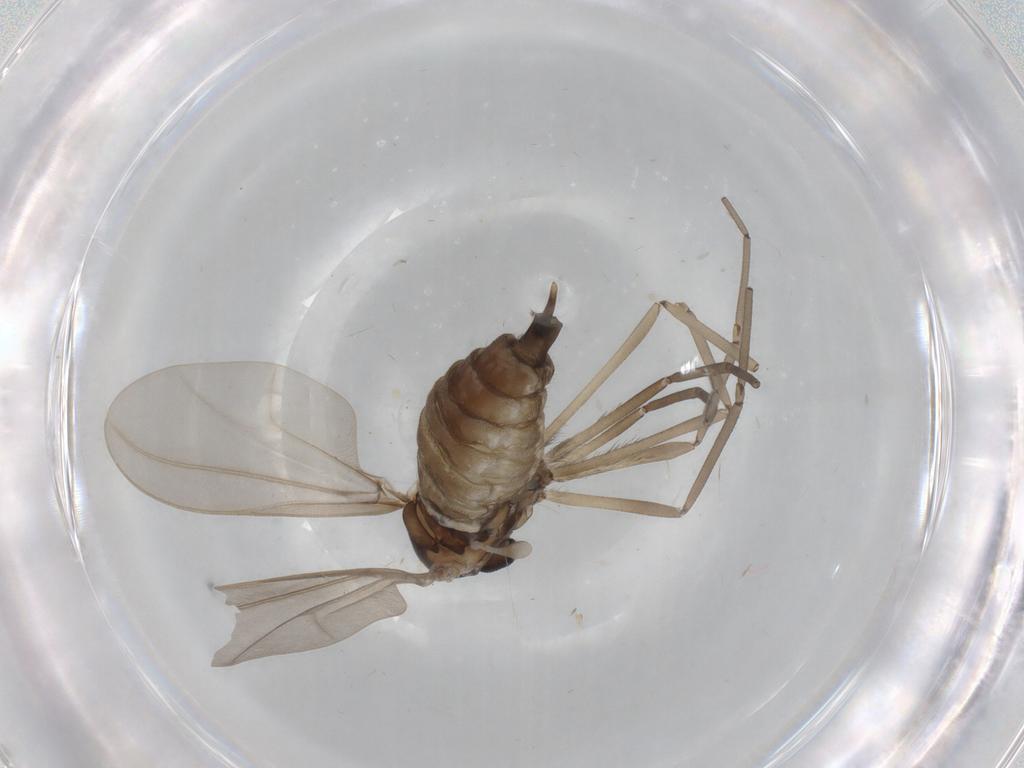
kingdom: Animalia
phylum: Arthropoda
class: Insecta
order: Diptera
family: Cecidomyiidae
